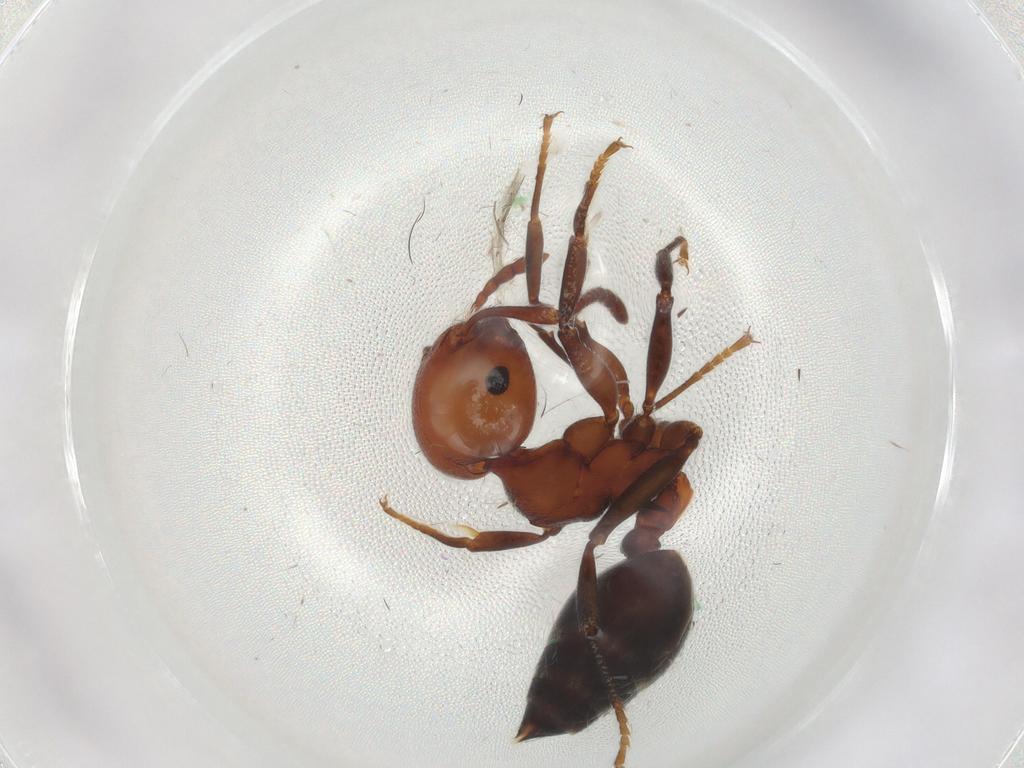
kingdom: Animalia
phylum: Arthropoda
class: Insecta
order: Hymenoptera
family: Formicidae
